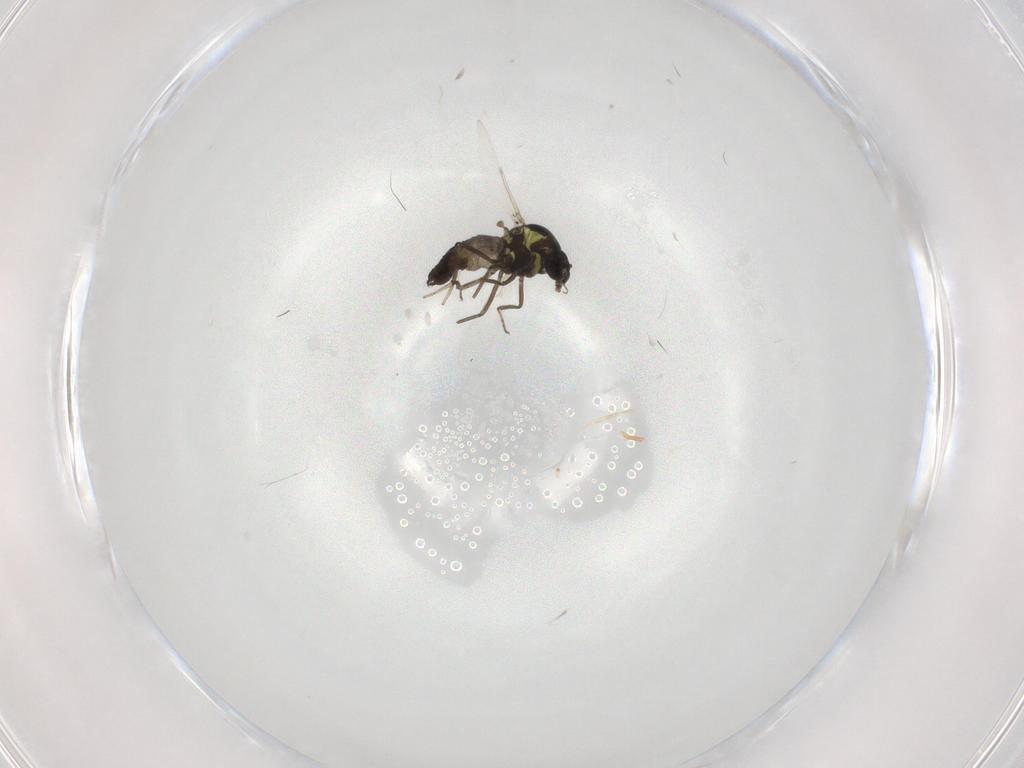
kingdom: Animalia
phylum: Arthropoda
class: Insecta
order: Diptera
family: Ceratopogonidae
